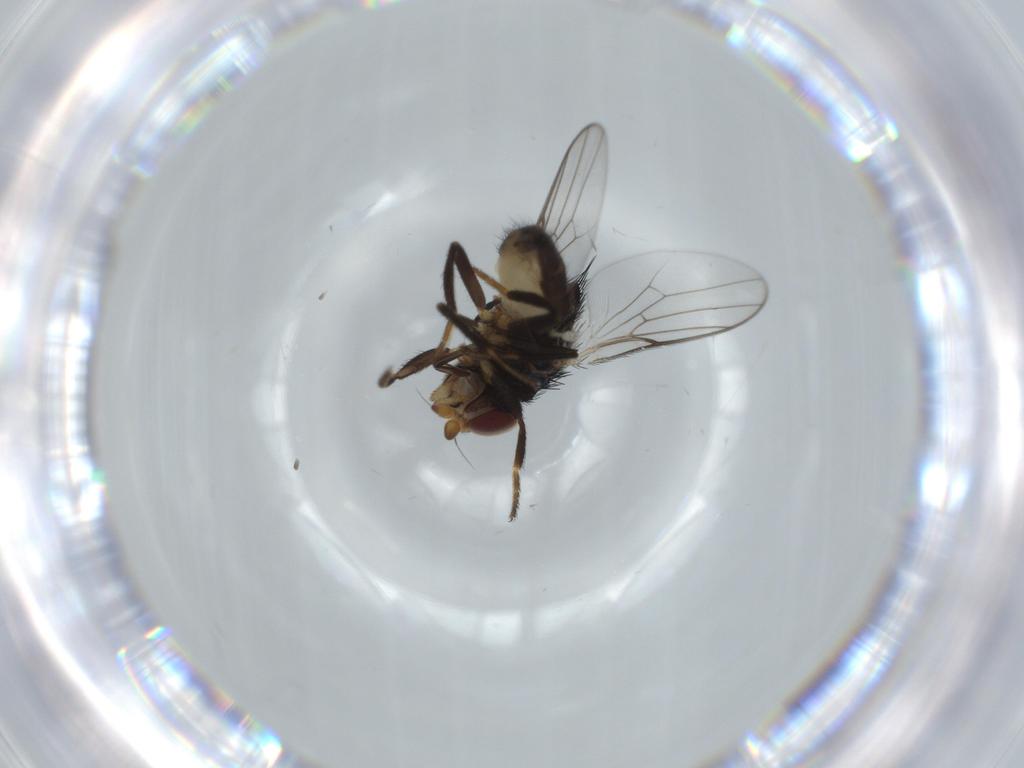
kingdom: Animalia
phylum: Arthropoda
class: Insecta
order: Diptera
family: Chloropidae
